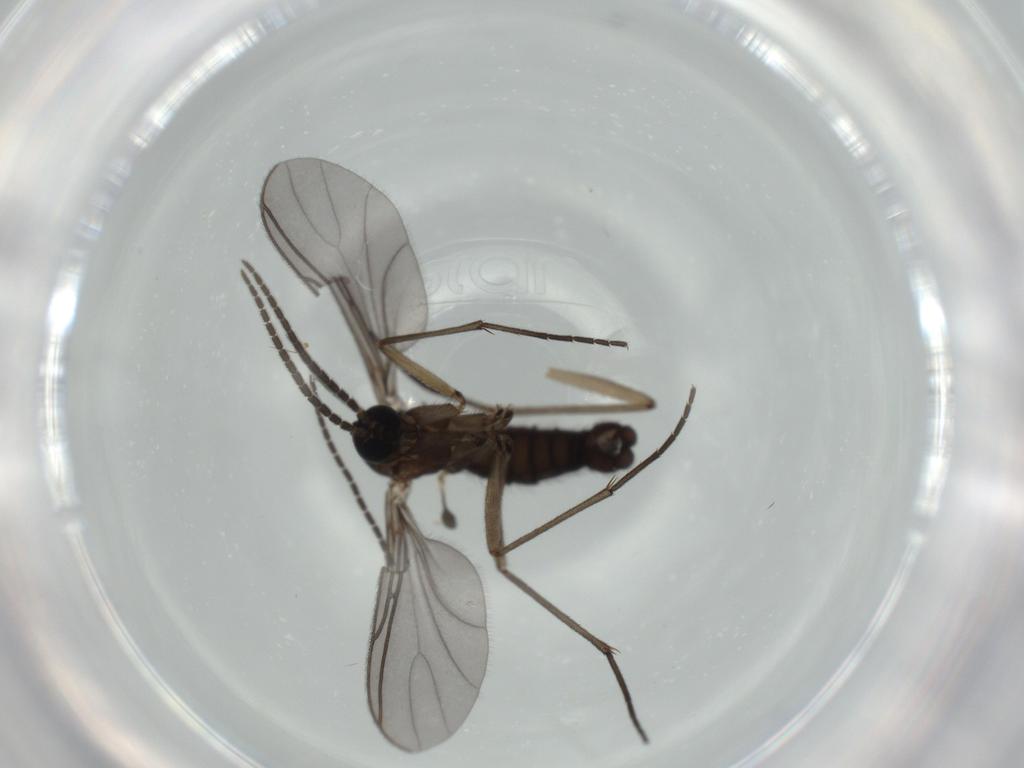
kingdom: Animalia
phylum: Arthropoda
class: Insecta
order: Diptera
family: Sciaridae
